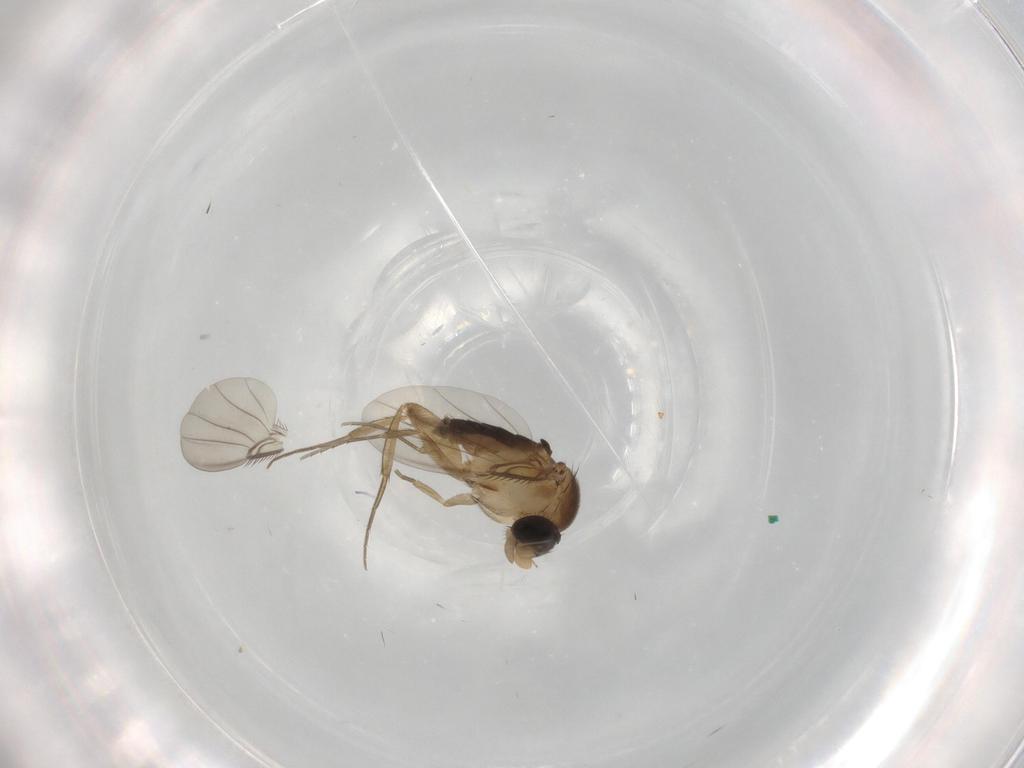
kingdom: Animalia
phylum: Arthropoda
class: Insecta
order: Diptera
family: Phoridae
